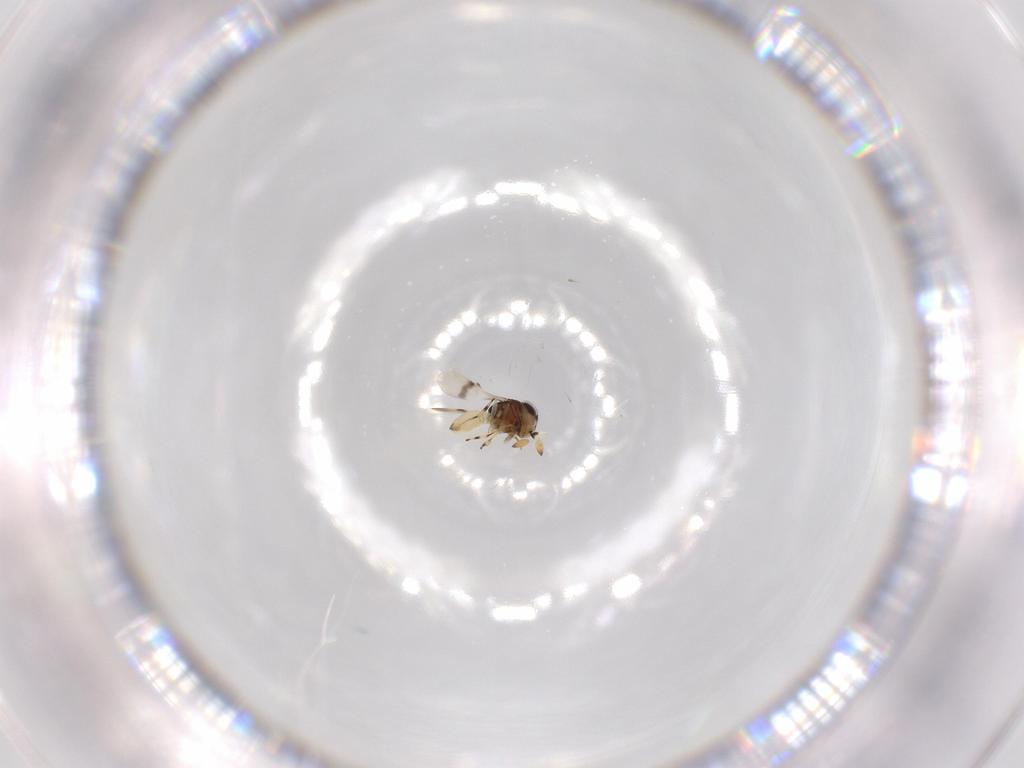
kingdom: Animalia
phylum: Arthropoda
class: Insecta
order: Hymenoptera
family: Scelionidae
